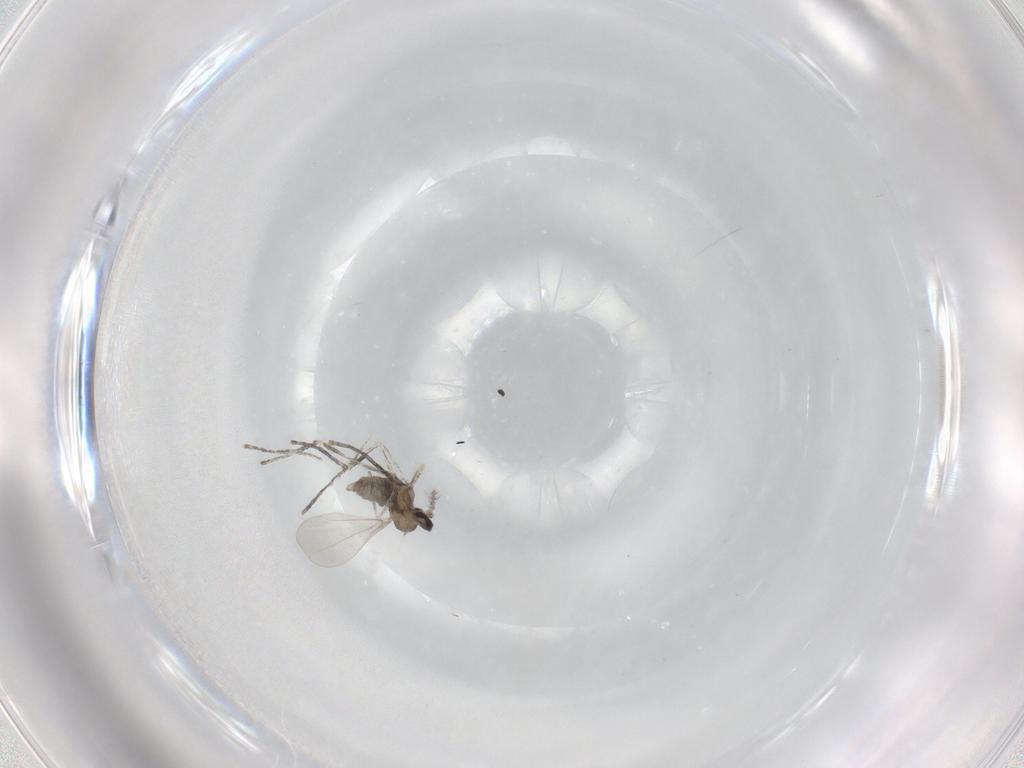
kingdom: Animalia
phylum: Arthropoda
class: Insecta
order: Diptera
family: Cecidomyiidae
